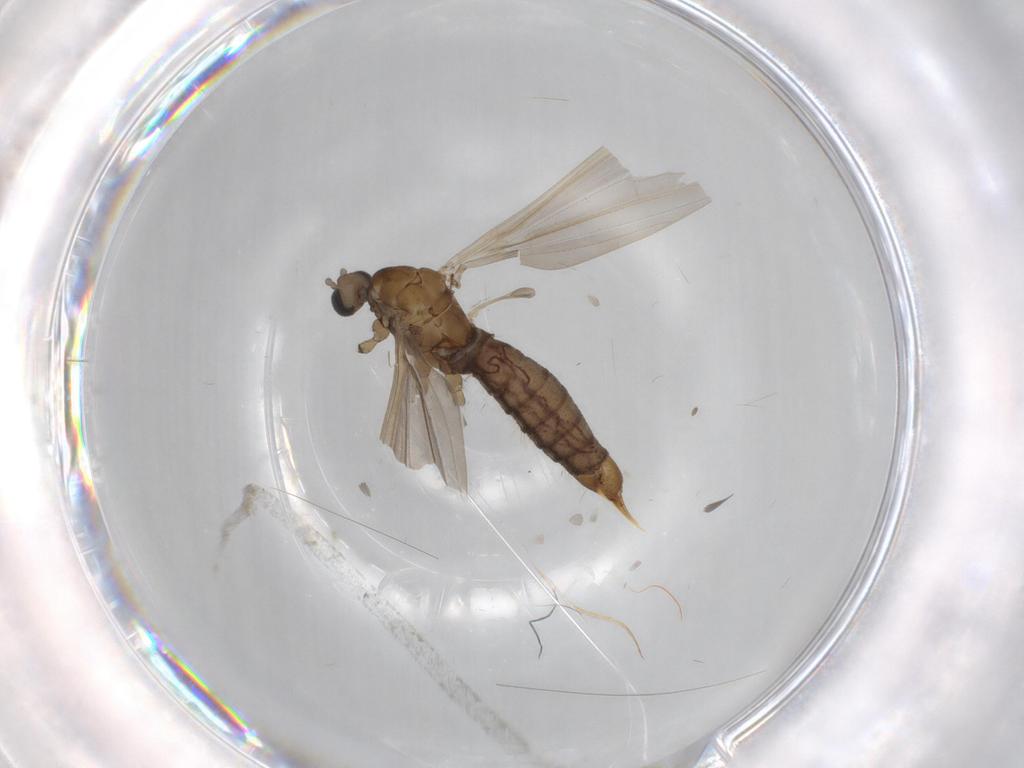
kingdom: Animalia
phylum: Arthropoda
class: Insecta
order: Diptera
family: Limoniidae
